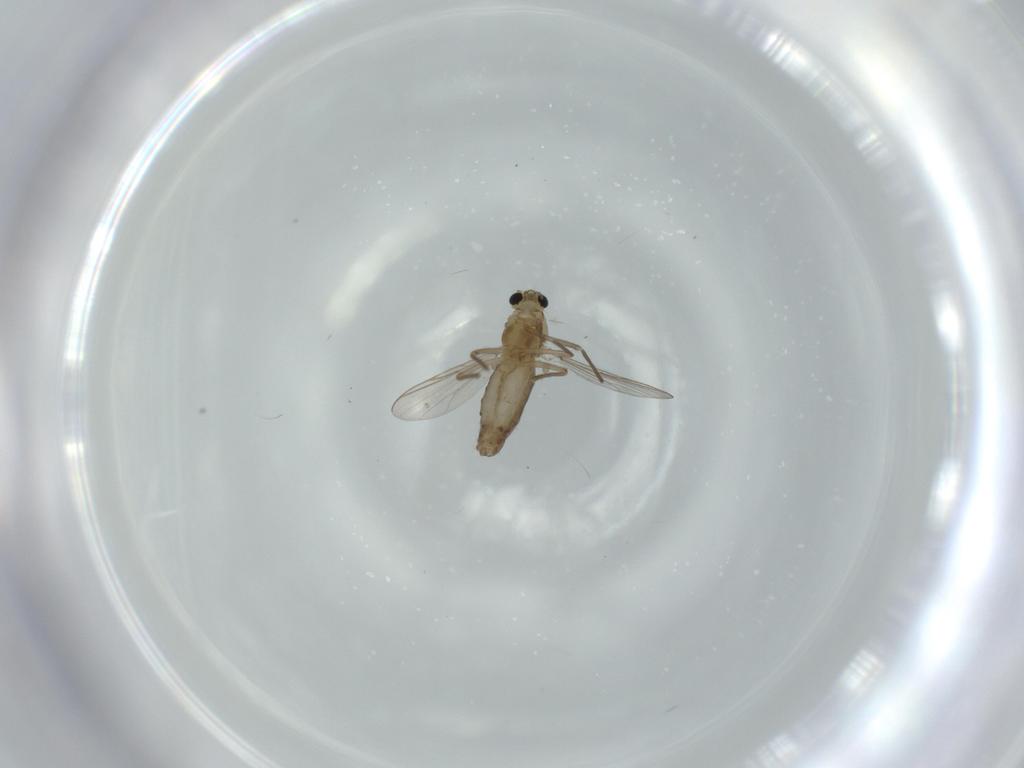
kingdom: Animalia
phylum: Arthropoda
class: Insecta
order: Diptera
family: Chironomidae
